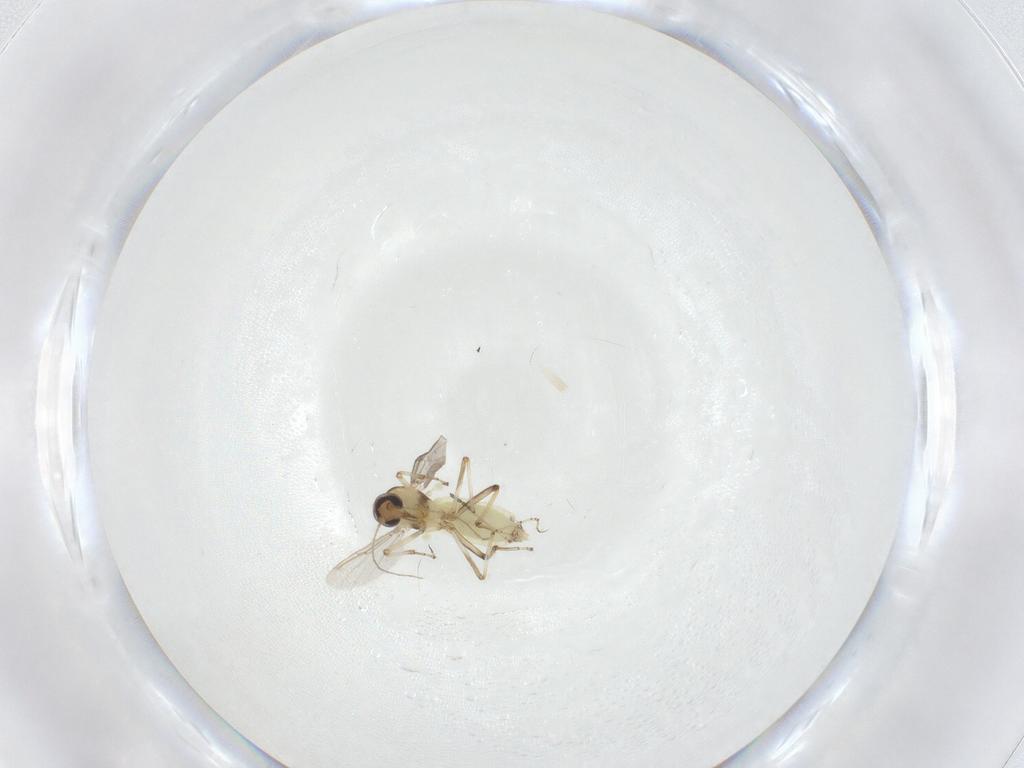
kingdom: Animalia
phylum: Arthropoda
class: Insecta
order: Diptera
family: Ceratopogonidae
